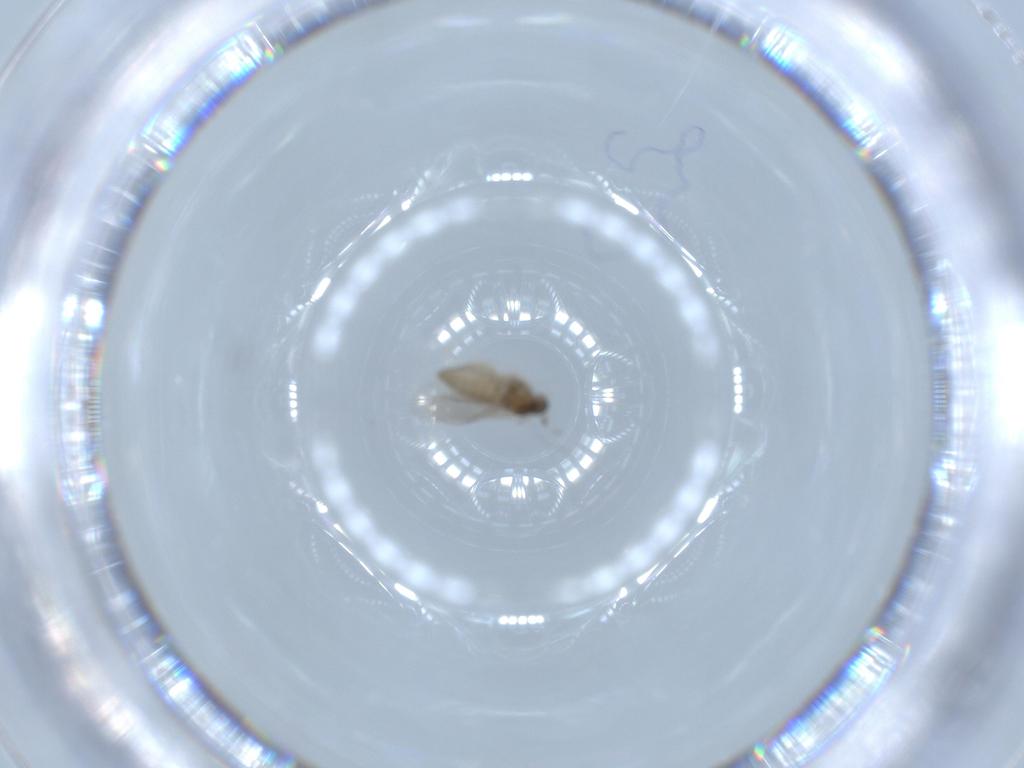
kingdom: Animalia
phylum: Arthropoda
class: Insecta
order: Diptera
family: Cecidomyiidae
